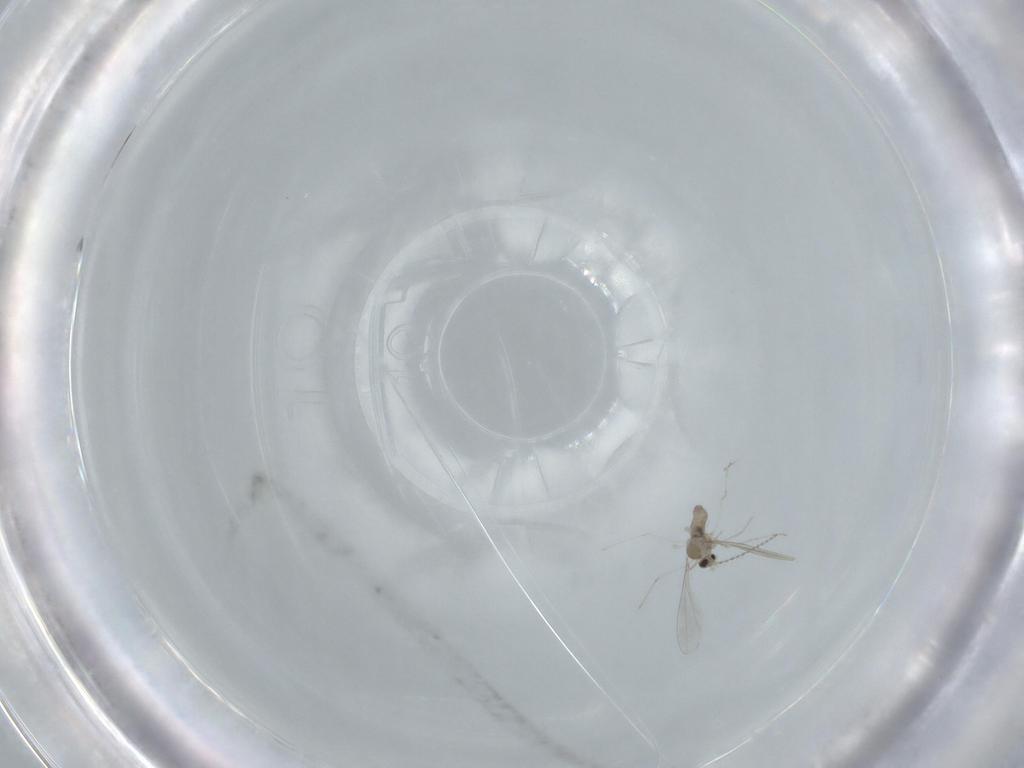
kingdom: Animalia
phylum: Arthropoda
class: Insecta
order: Diptera
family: Cecidomyiidae
